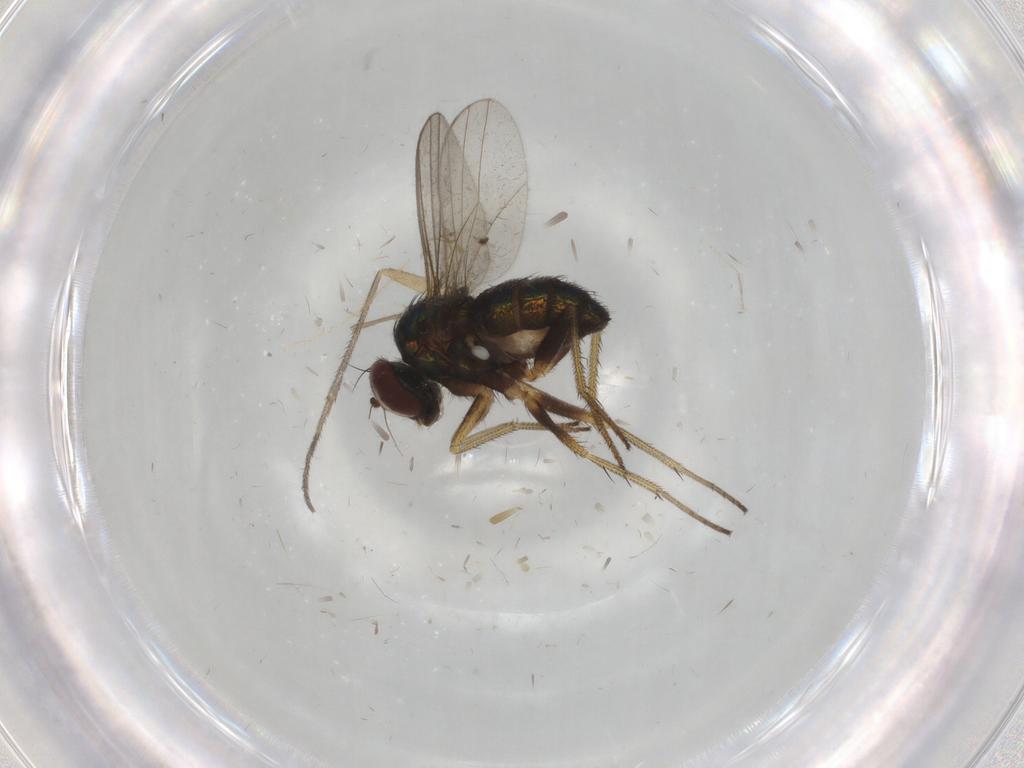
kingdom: Animalia
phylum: Arthropoda
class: Insecta
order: Diptera
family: Sciaridae
